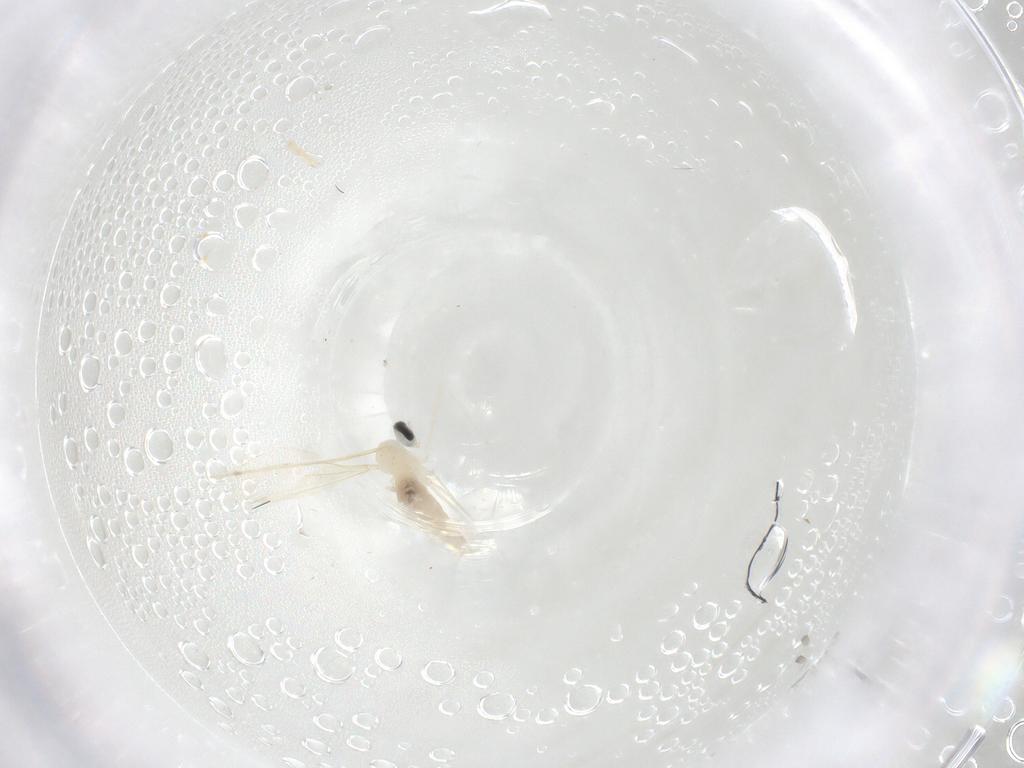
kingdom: Animalia
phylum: Arthropoda
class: Insecta
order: Diptera
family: Cecidomyiidae
